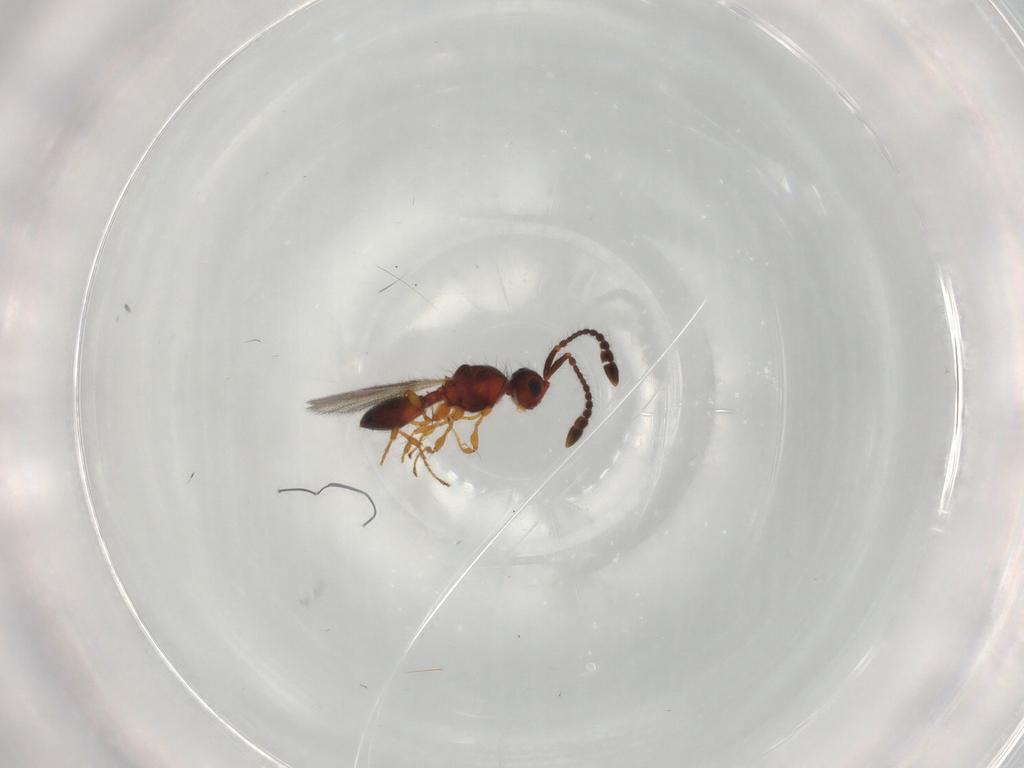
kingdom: Animalia
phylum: Arthropoda
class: Insecta
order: Hymenoptera
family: Diapriidae
